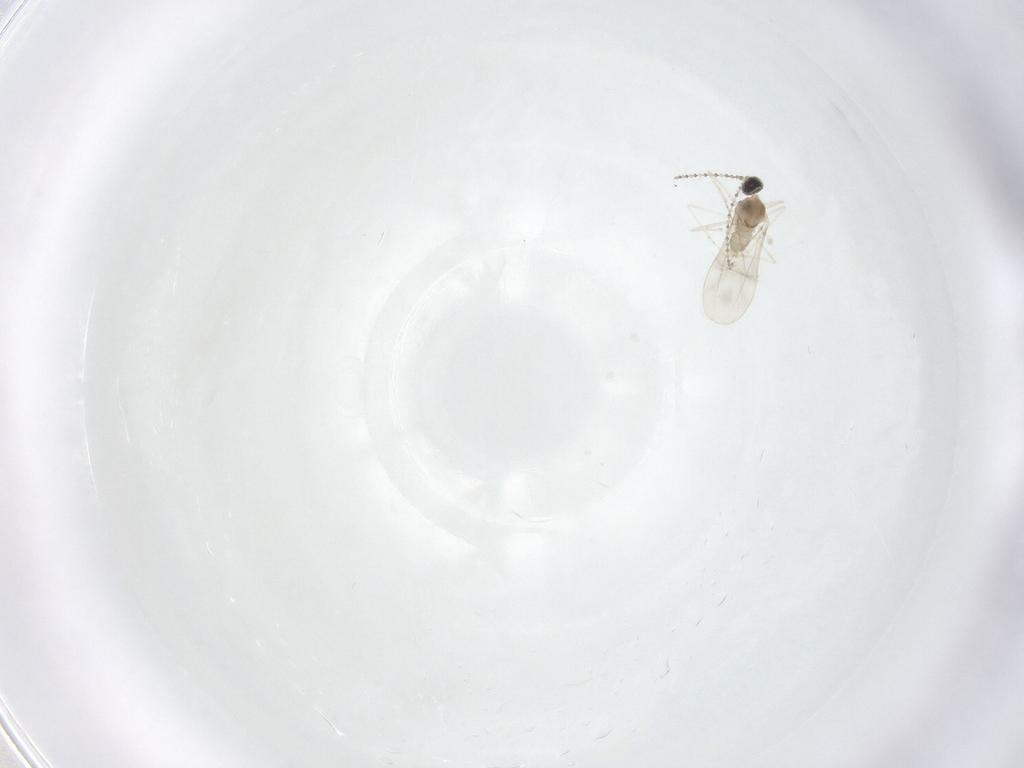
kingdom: Animalia
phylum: Arthropoda
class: Insecta
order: Diptera
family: Cecidomyiidae
